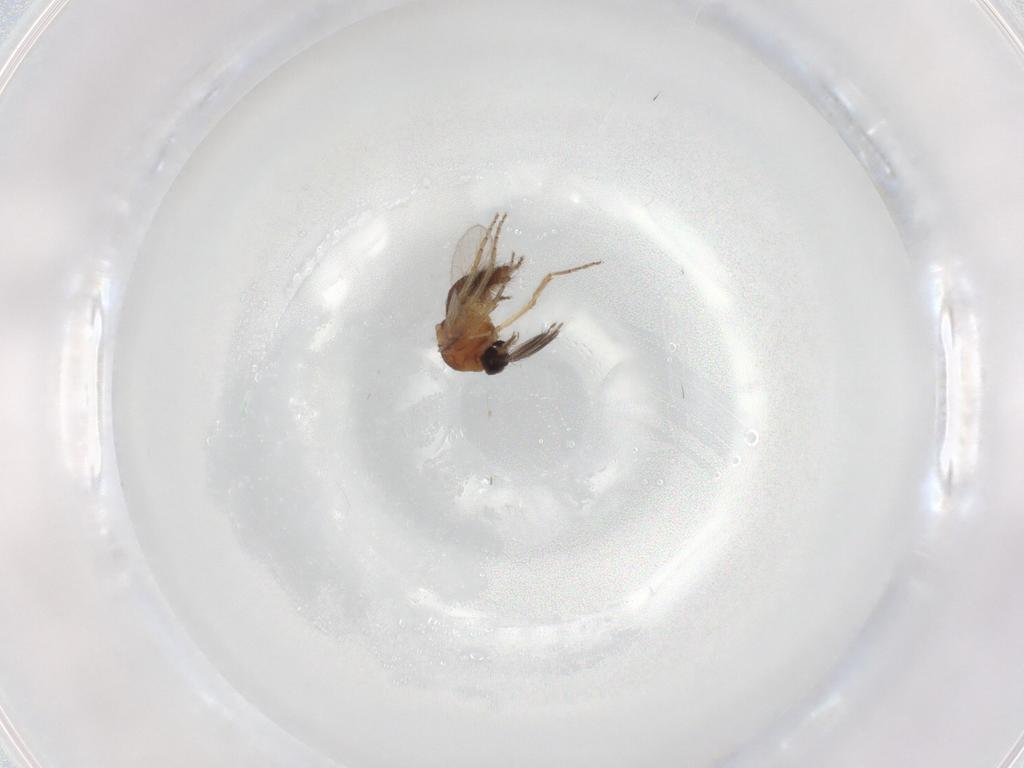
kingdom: Animalia
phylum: Arthropoda
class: Insecta
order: Diptera
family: Ceratopogonidae
